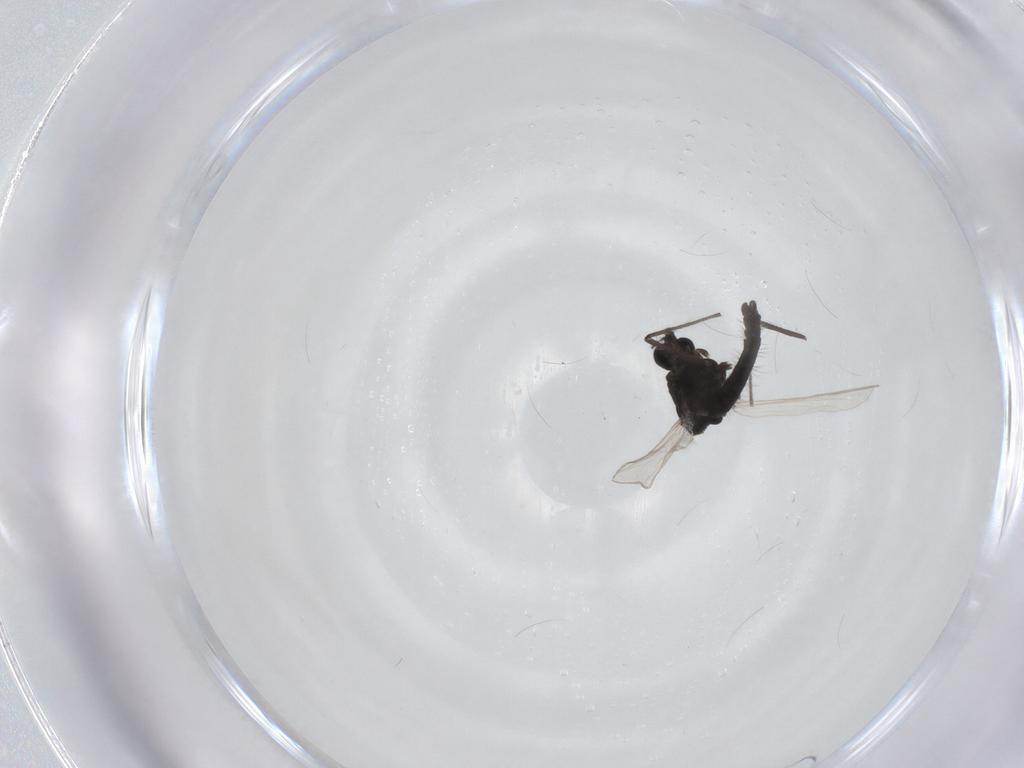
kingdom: Animalia
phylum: Arthropoda
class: Insecta
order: Diptera
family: Chironomidae
